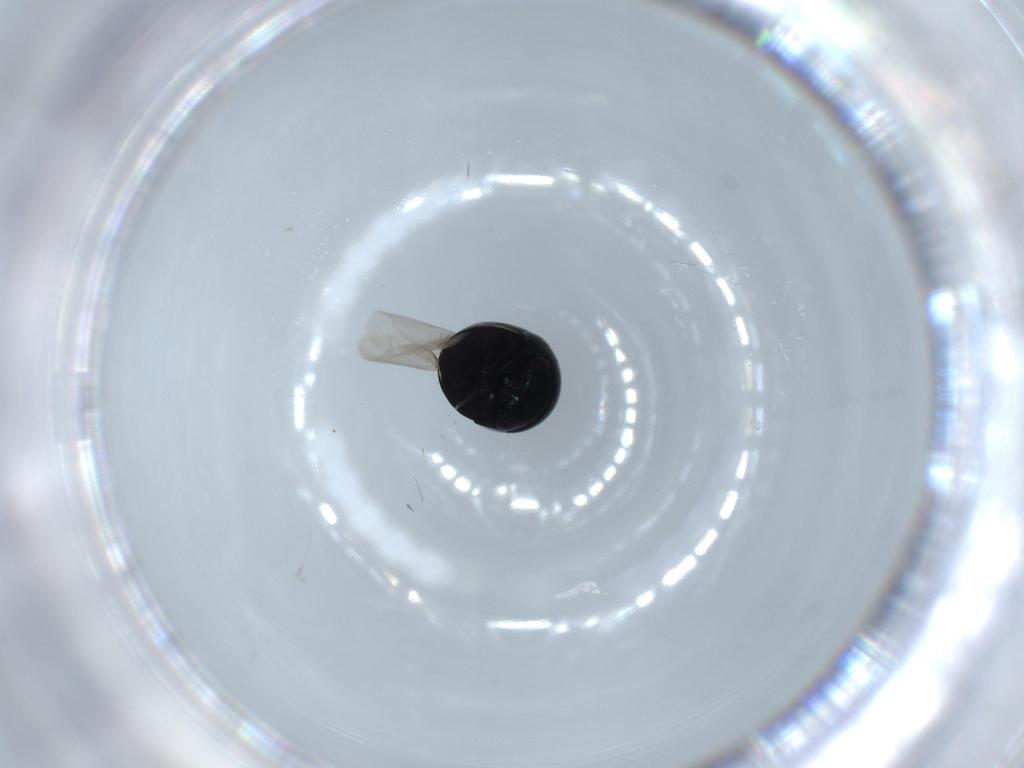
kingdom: Animalia
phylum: Arthropoda
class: Insecta
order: Coleoptera
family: Cybocephalidae
